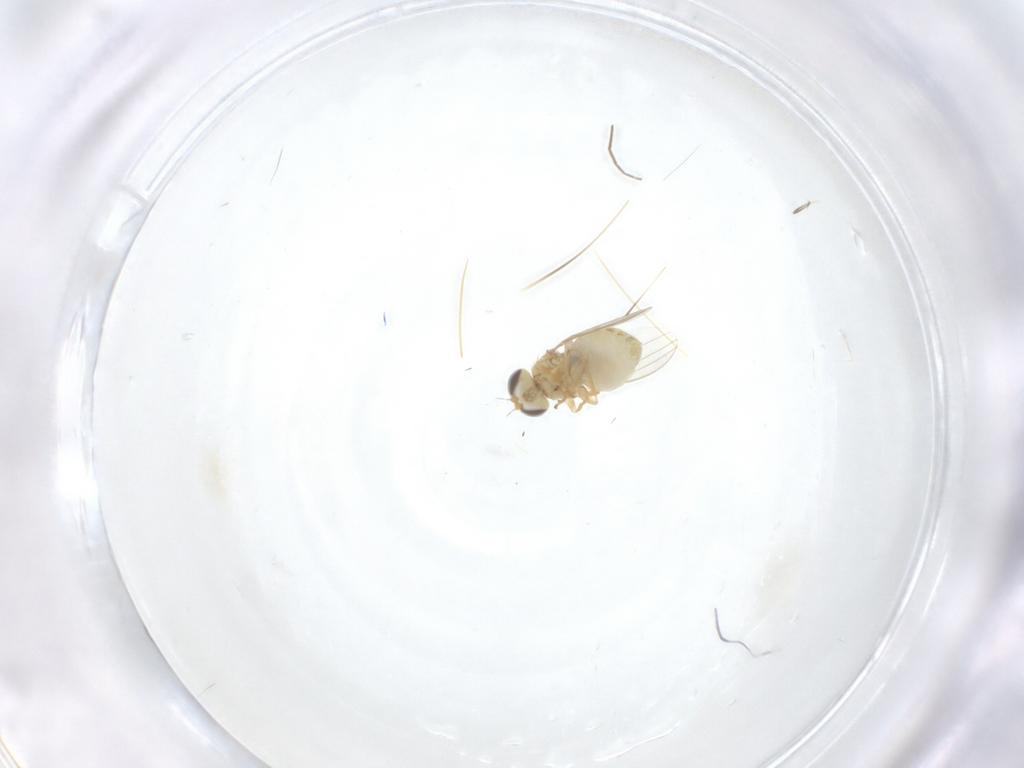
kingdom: Animalia
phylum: Arthropoda
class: Insecta
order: Diptera
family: Chyromyidae
